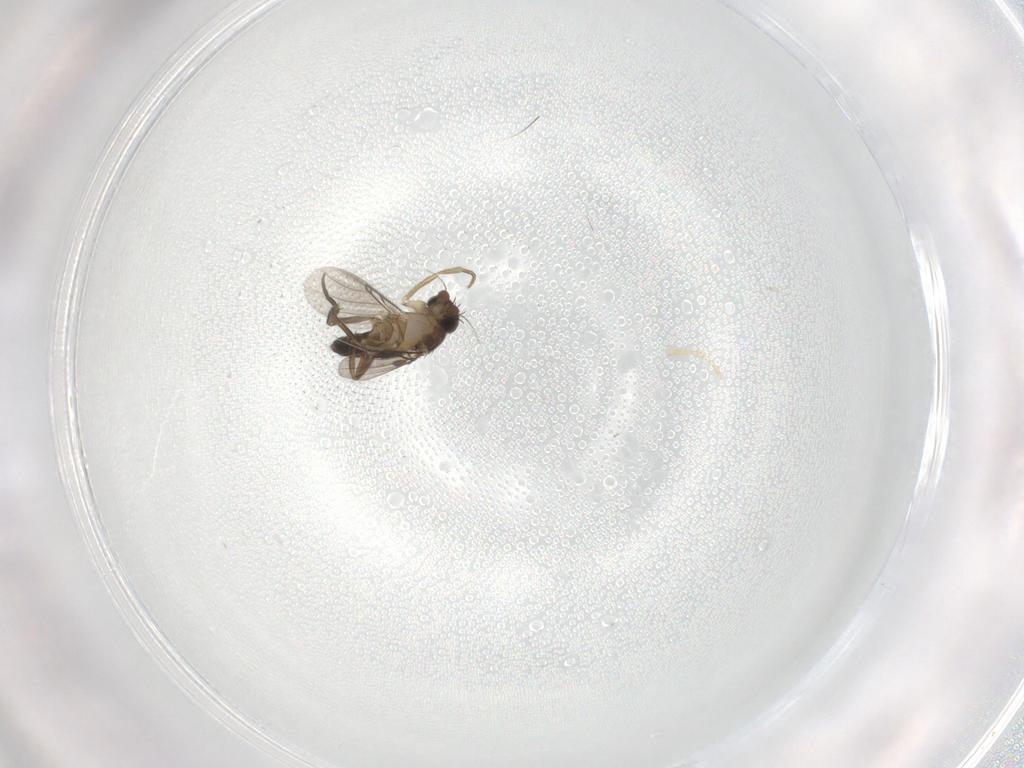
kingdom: Animalia
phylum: Arthropoda
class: Insecta
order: Diptera
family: Phoridae
